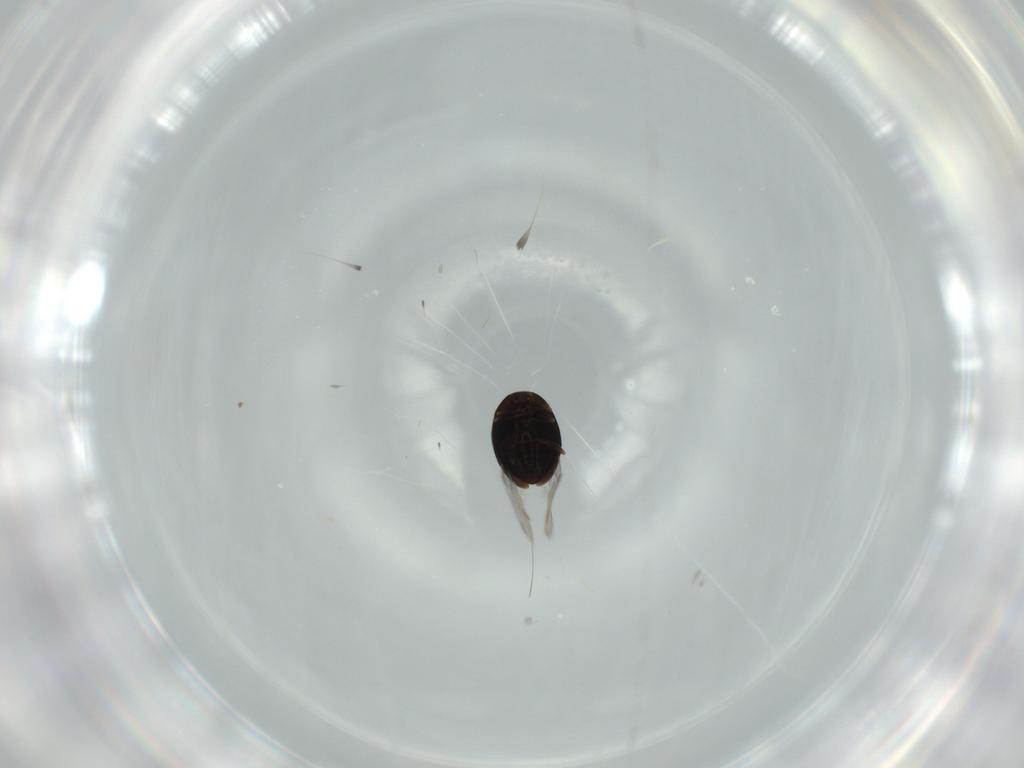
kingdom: Animalia
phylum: Arthropoda
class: Insecta
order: Coleoptera
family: Corylophidae
